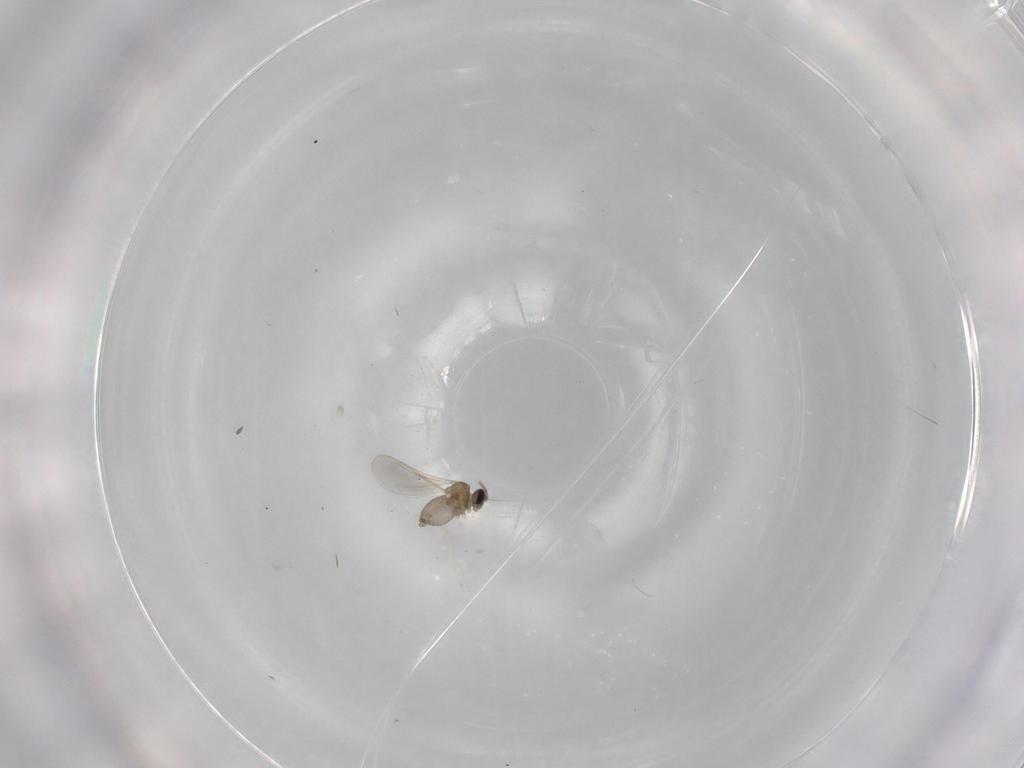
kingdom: Animalia
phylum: Arthropoda
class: Insecta
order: Diptera
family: Cecidomyiidae
